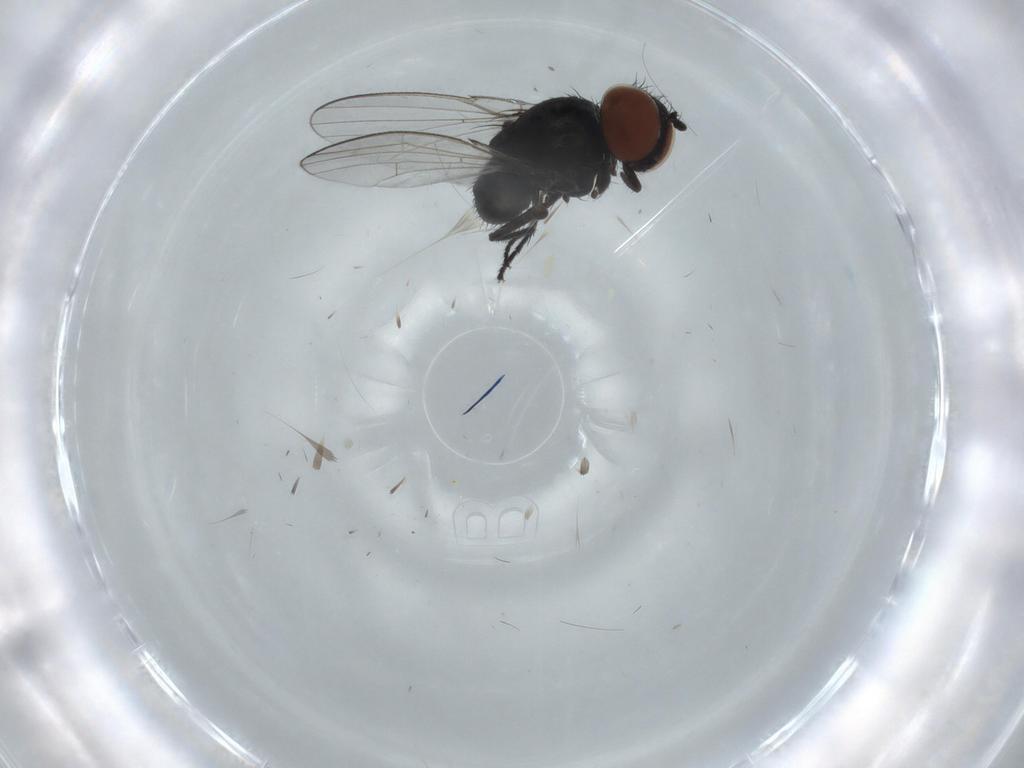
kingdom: Animalia
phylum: Arthropoda
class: Insecta
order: Diptera
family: Milichiidae
